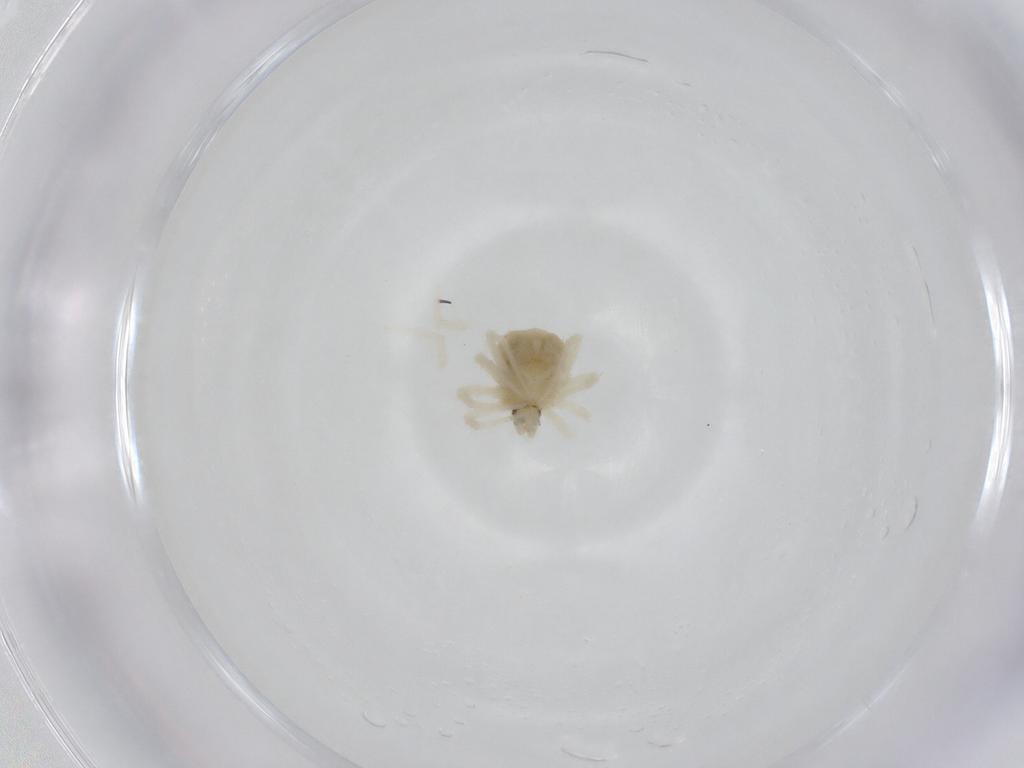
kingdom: Animalia
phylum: Arthropoda
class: Arachnida
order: Trombidiformes
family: Anystidae
